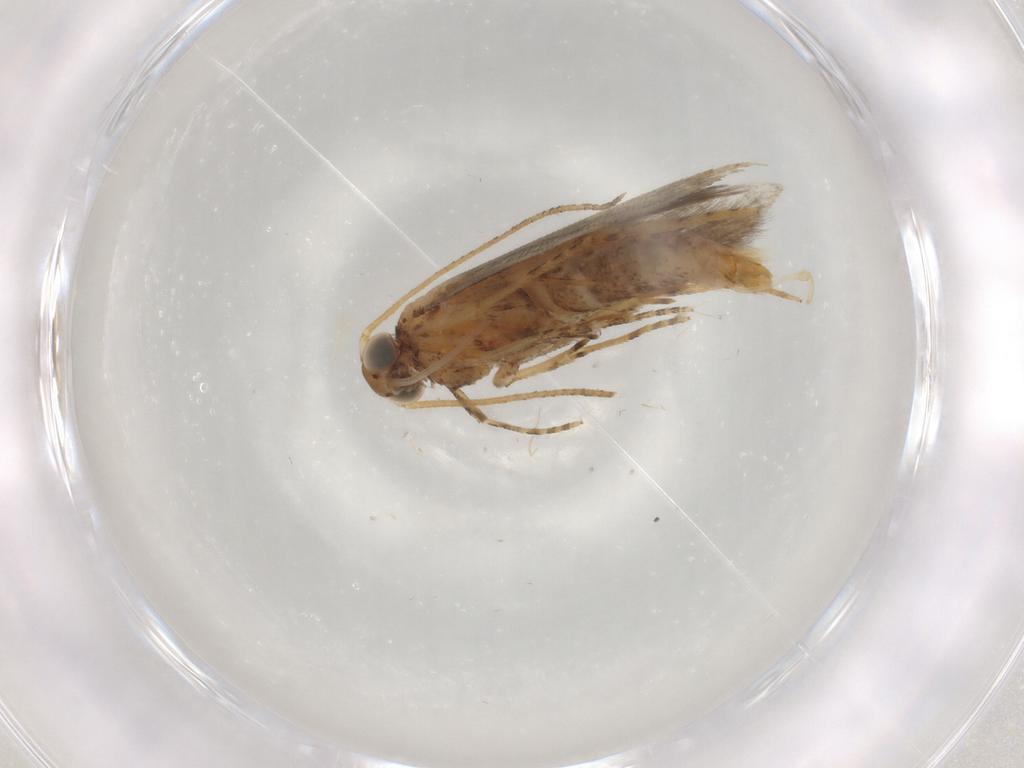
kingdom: Animalia
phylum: Arthropoda
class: Insecta
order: Lepidoptera
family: Plutellidae
